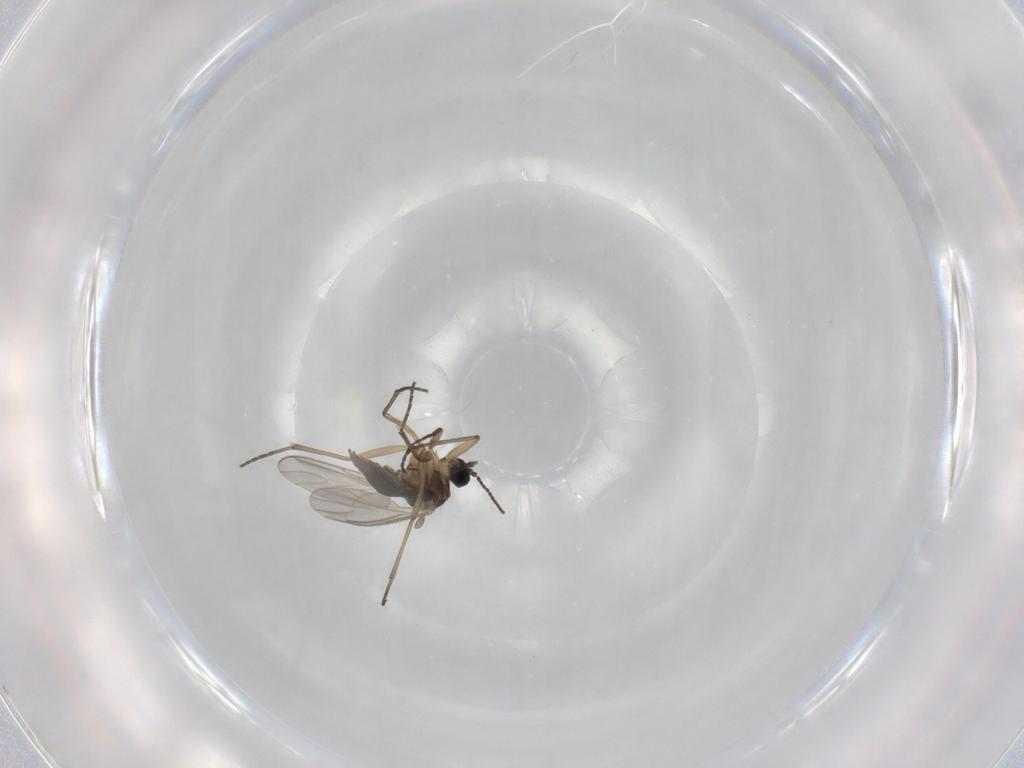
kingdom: Animalia
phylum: Arthropoda
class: Insecta
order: Diptera
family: Sciaridae
